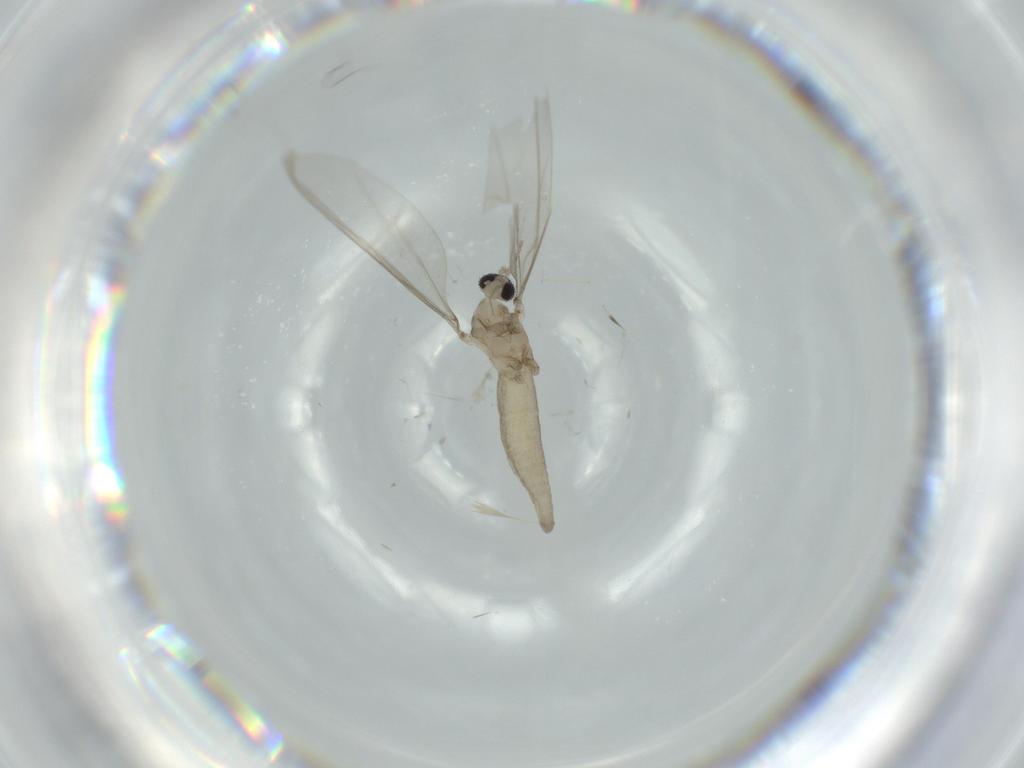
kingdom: Animalia
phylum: Arthropoda
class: Insecta
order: Diptera
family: Cecidomyiidae
